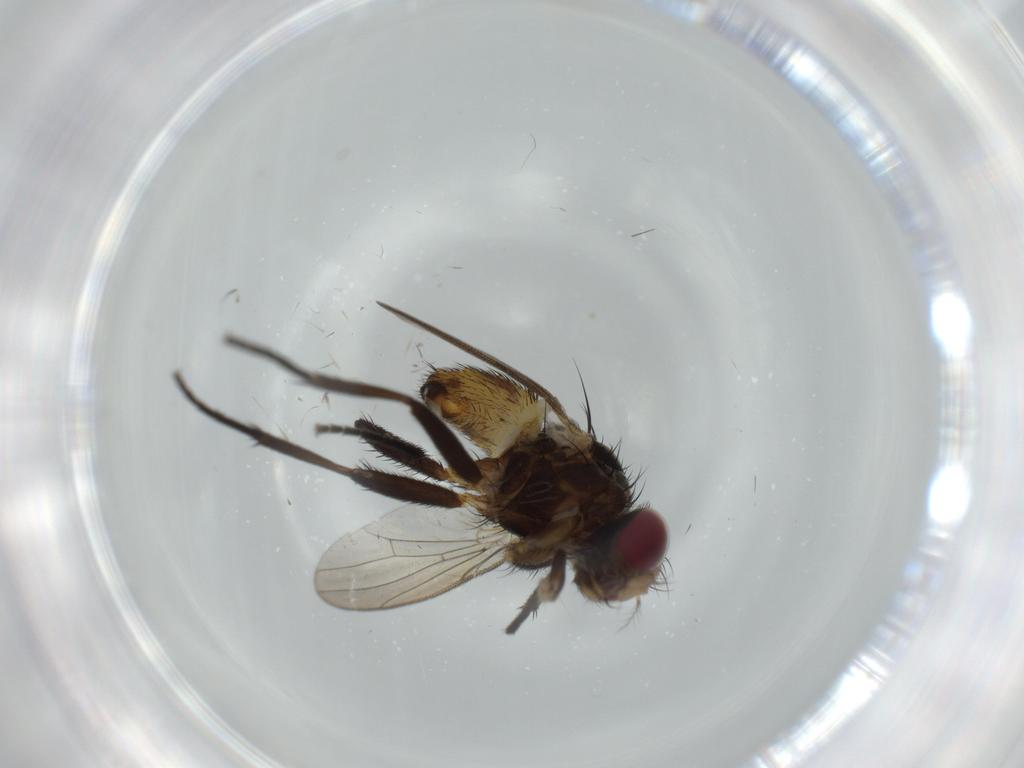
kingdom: Animalia
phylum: Arthropoda
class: Insecta
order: Diptera
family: Anthomyiidae
